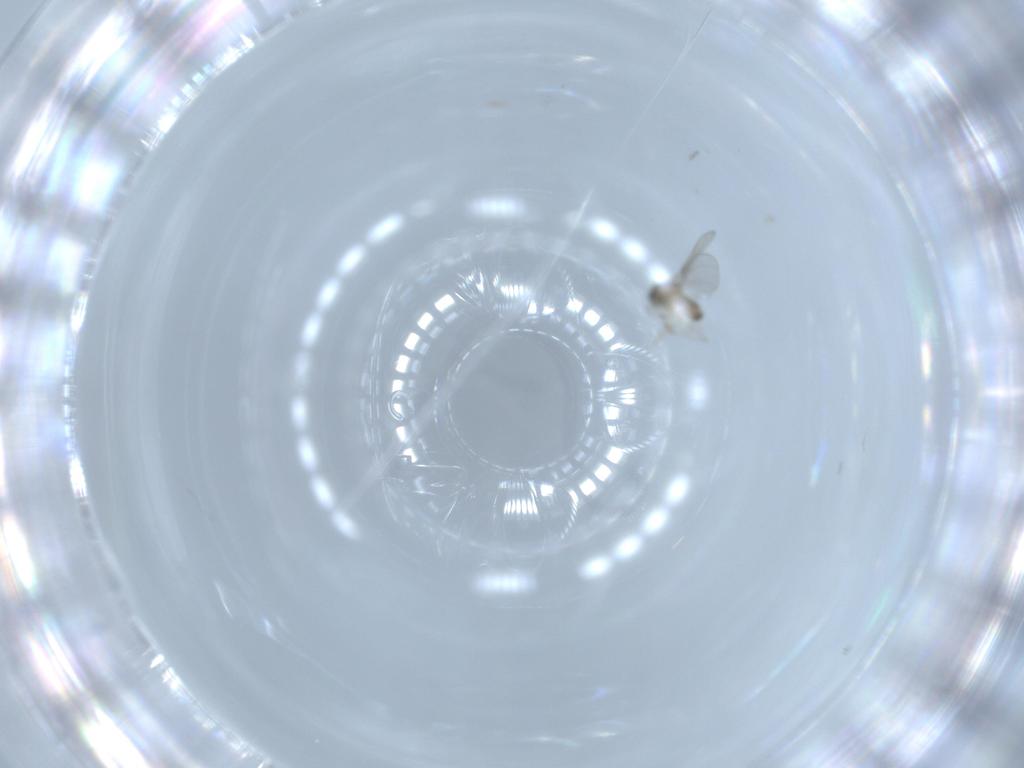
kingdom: Animalia
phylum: Arthropoda
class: Insecta
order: Diptera
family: Cecidomyiidae
